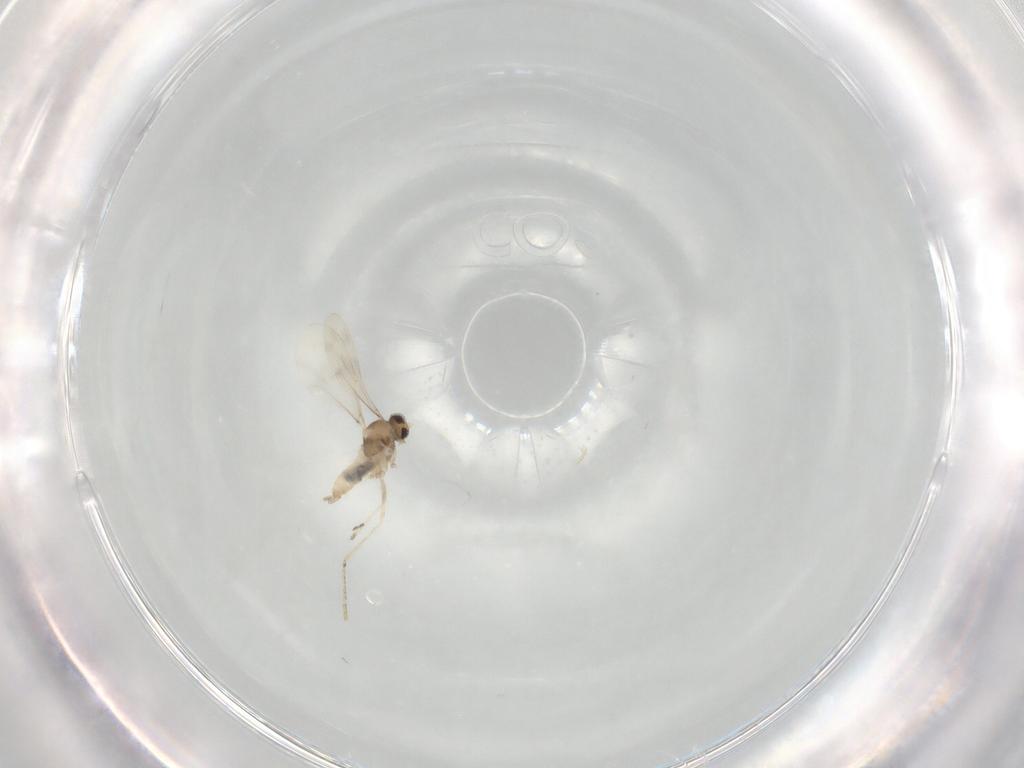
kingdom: Animalia
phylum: Arthropoda
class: Insecta
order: Diptera
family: Cecidomyiidae
